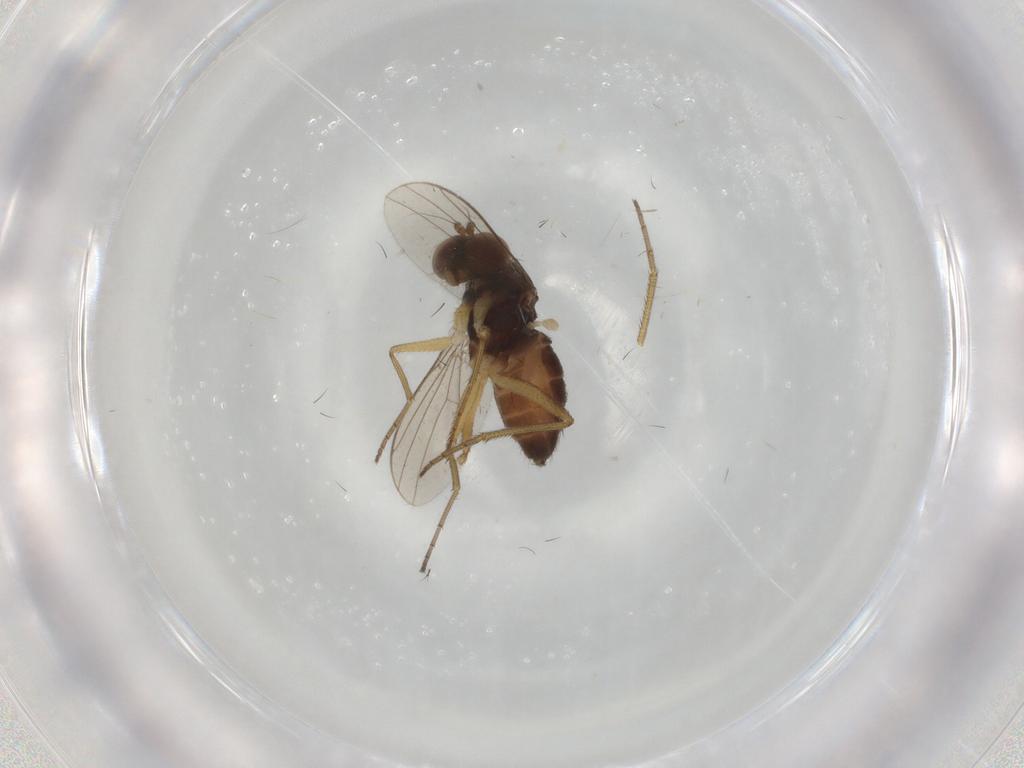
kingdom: Animalia
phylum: Arthropoda
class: Insecta
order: Diptera
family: Dolichopodidae
